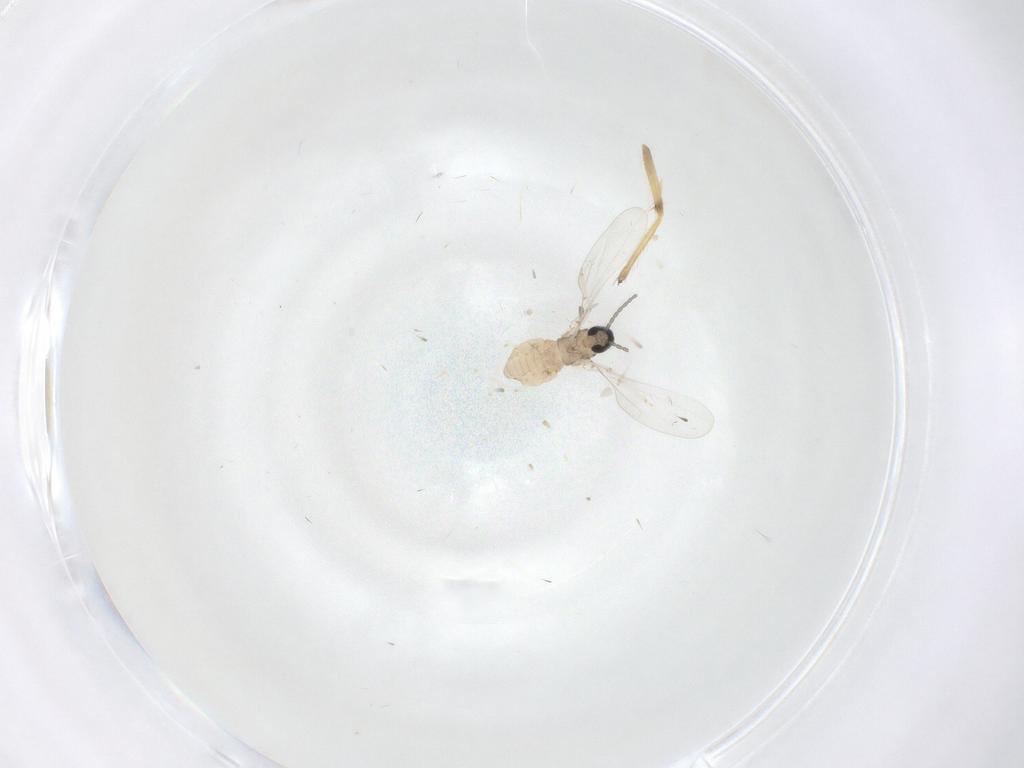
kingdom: Animalia
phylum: Arthropoda
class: Insecta
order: Diptera
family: Cecidomyiidae
